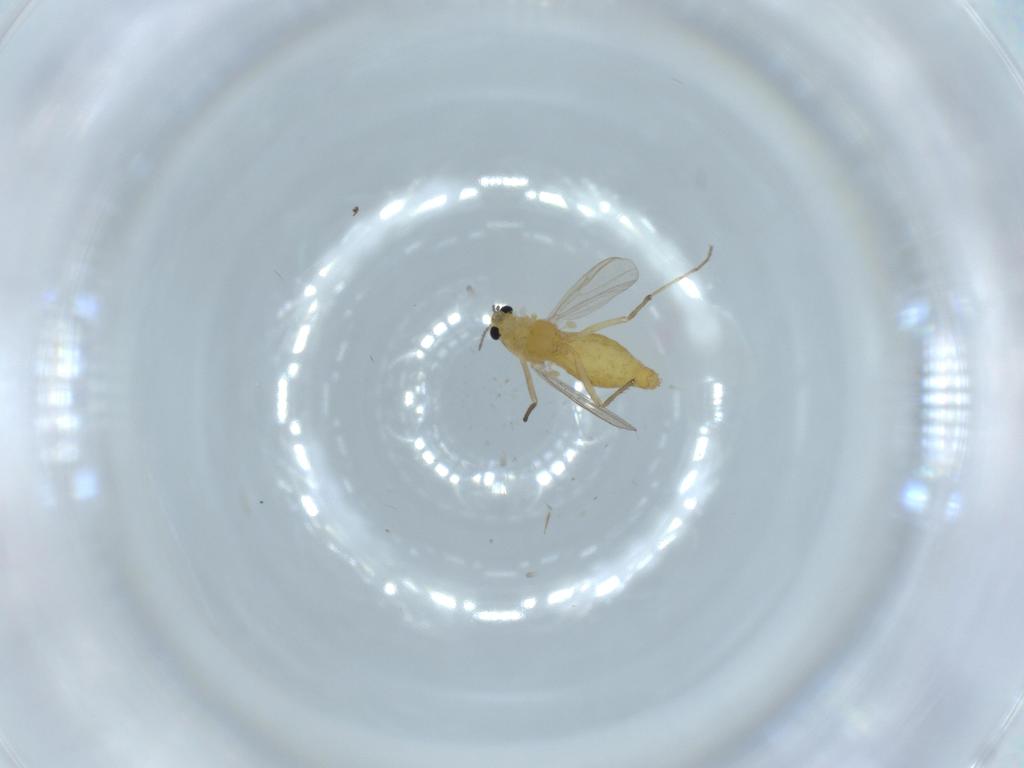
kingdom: Animalia
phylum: Arthropoda
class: Insecta
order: Diptera
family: Chironomidae
